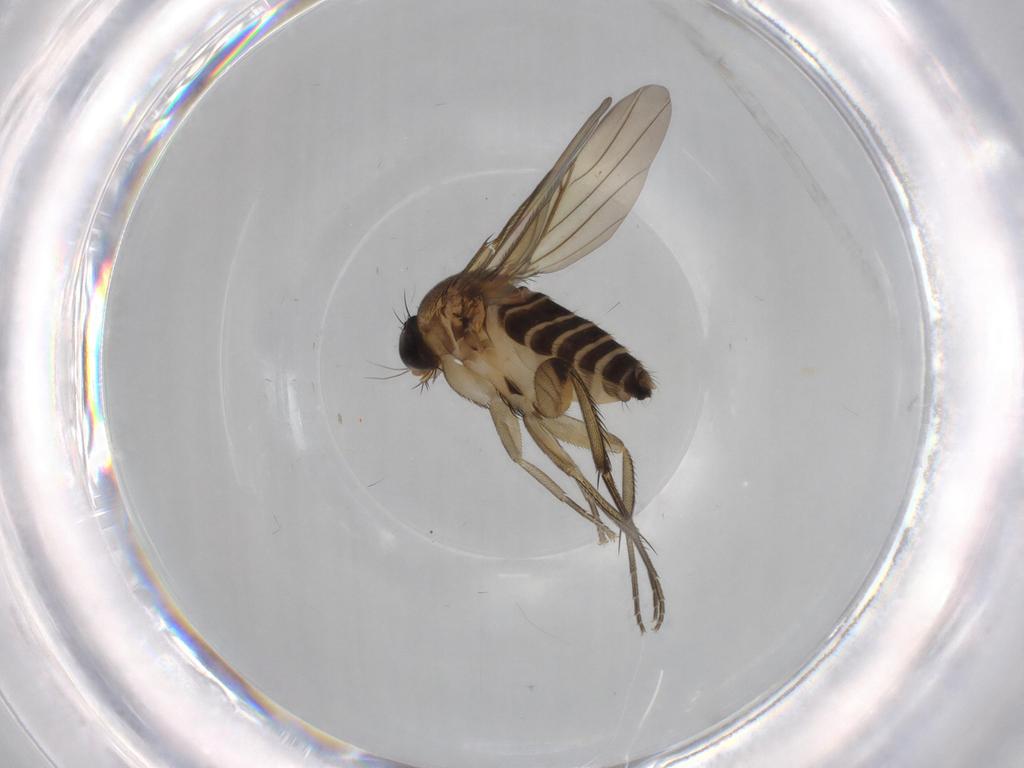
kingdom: Animalia
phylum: Arthropoda
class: Insecta
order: Diptera
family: Phoridae
